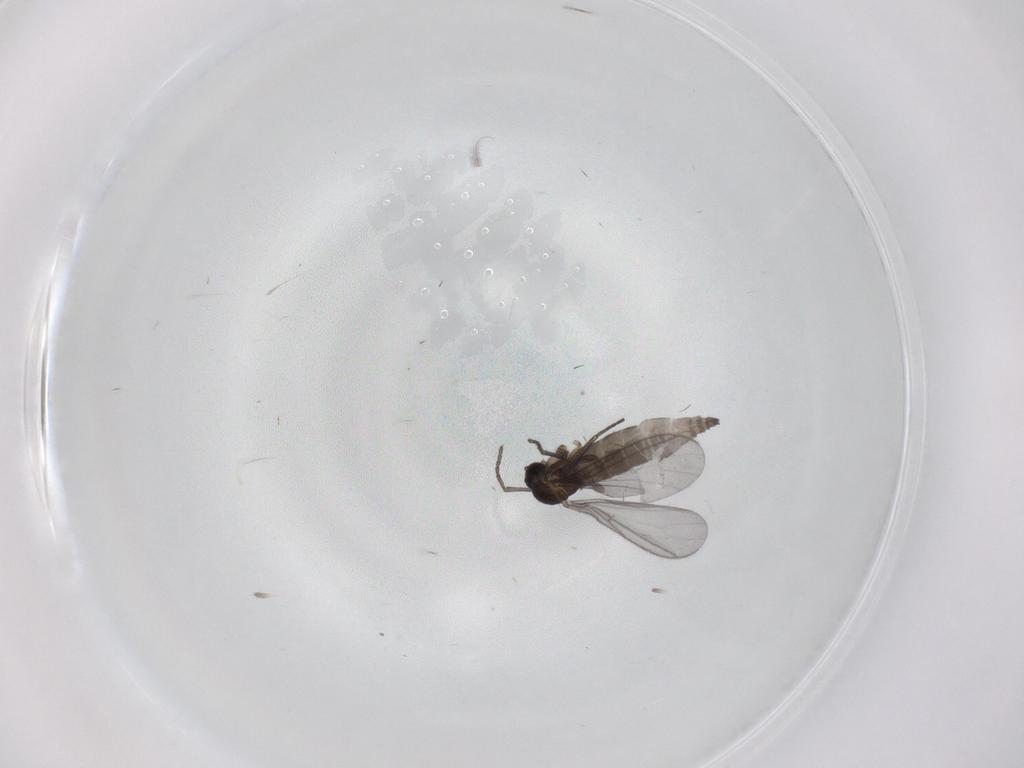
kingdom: Animalia
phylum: Arthropoda
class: Insecta
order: Diptera
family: Cecidomyiidae
